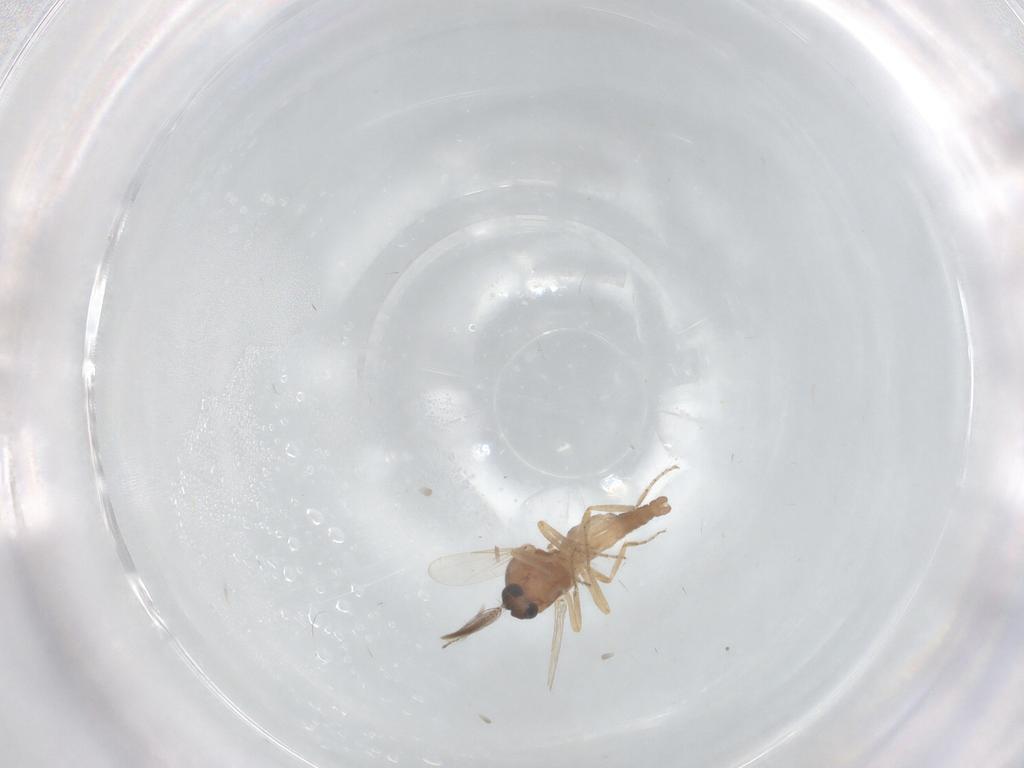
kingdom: Animalia
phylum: Arthropoda
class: Insecta
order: Diptera
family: Ceratopogonidae
